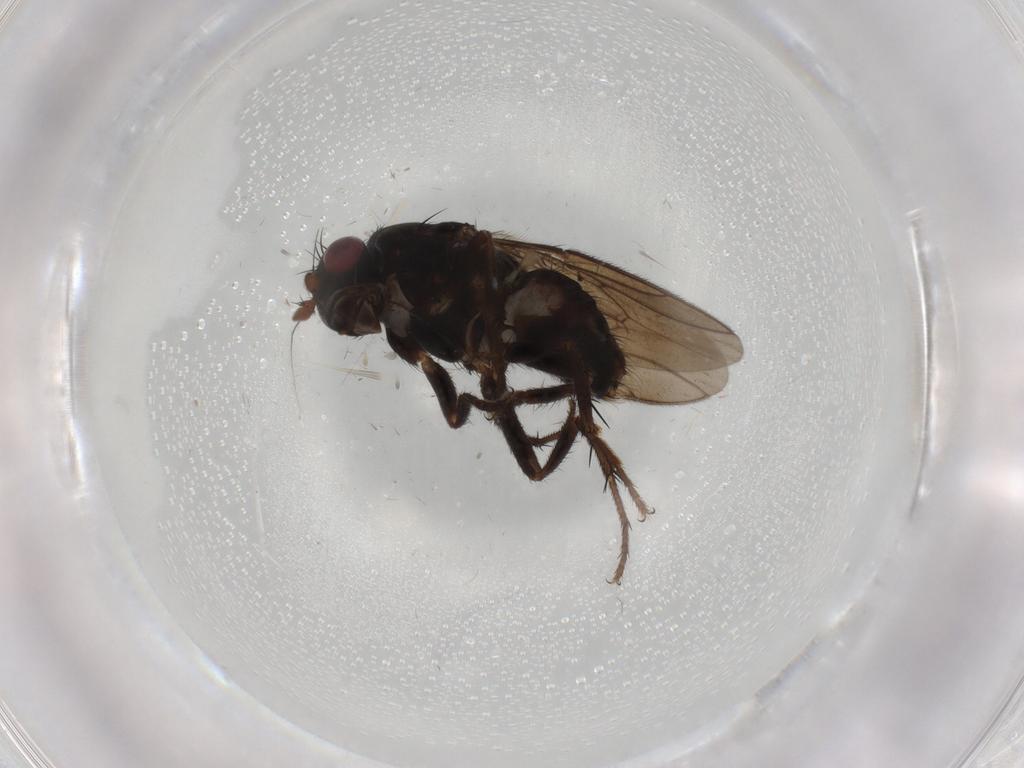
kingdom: Animalia
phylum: Arthropoda
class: Insecta
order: Diptera
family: Sphaeroceridae
